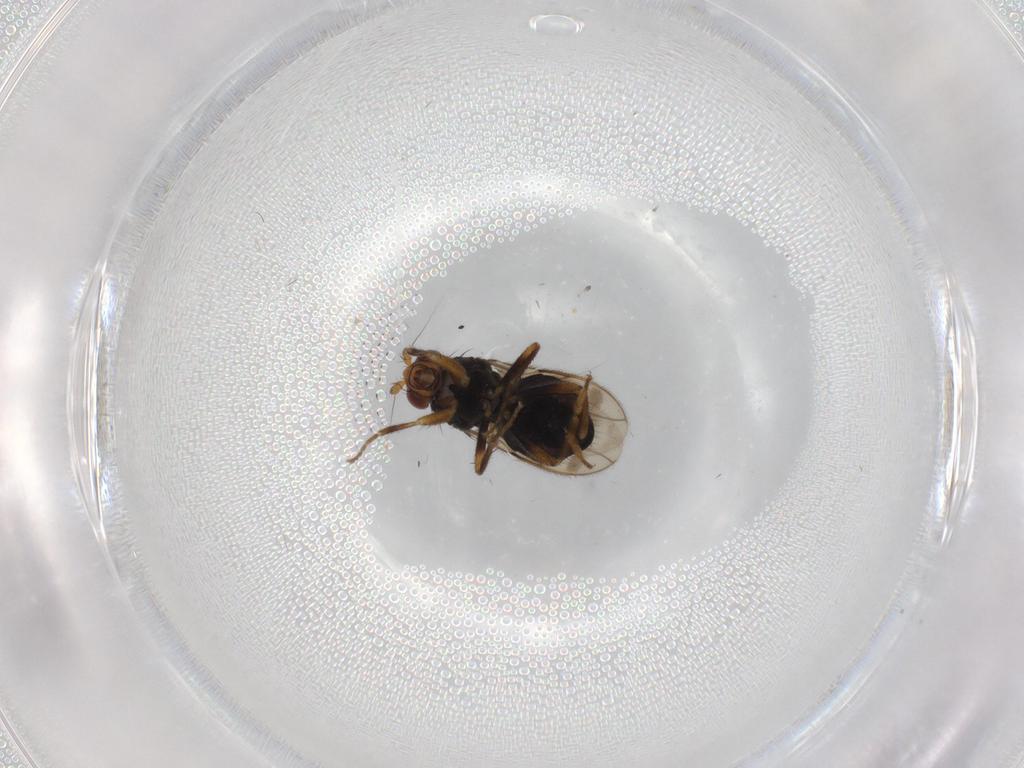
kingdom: Animalia
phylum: Arthropoda
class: Insecta
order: Diptera
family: Sphaeroceridae
